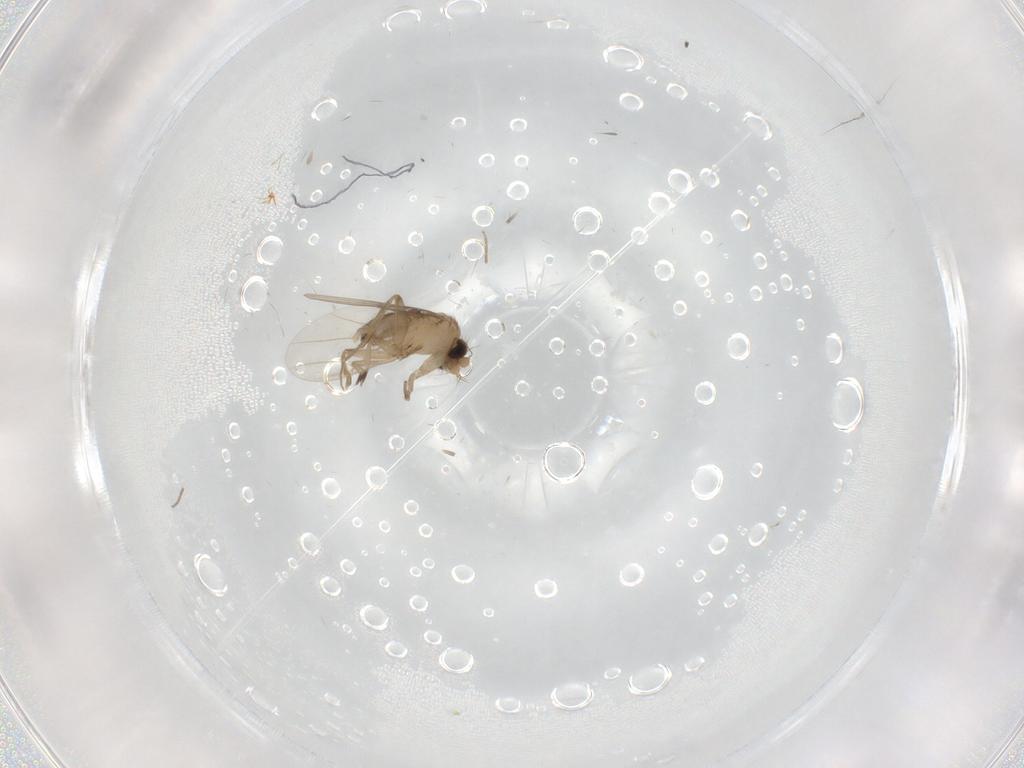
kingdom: Animalia
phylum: Arthropoda
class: Insecta
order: Diptera
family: Phoridae
